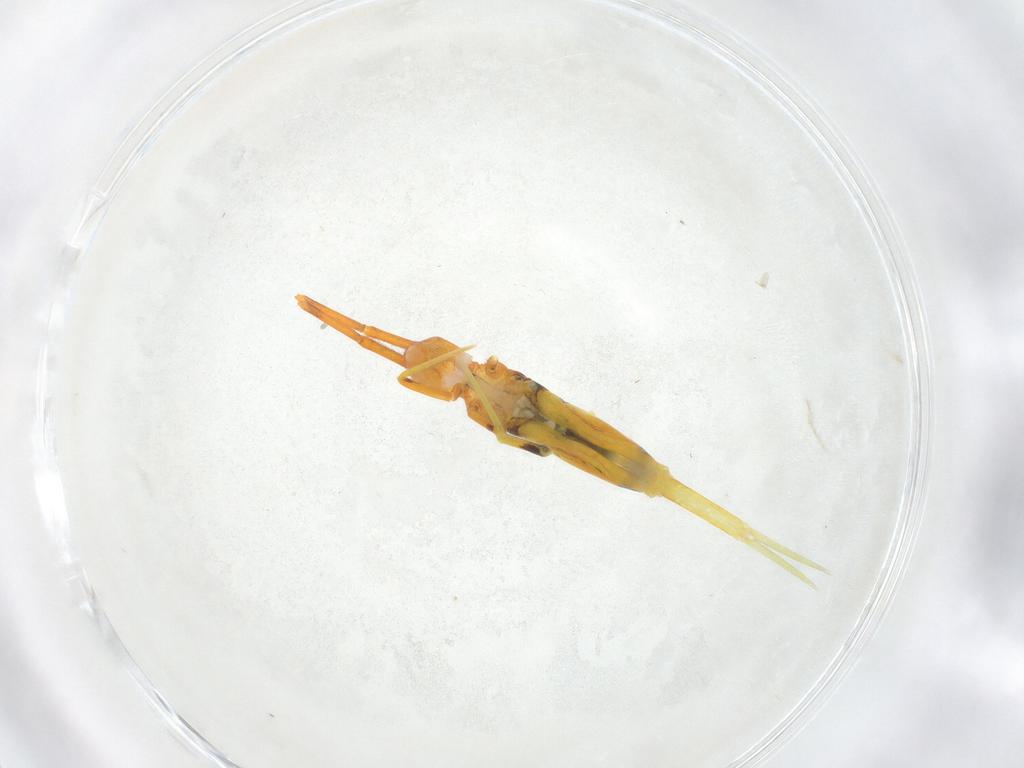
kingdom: Animalia
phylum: Arthropoda
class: Collembola
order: Entomobryomorpha
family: Entomobryidae
